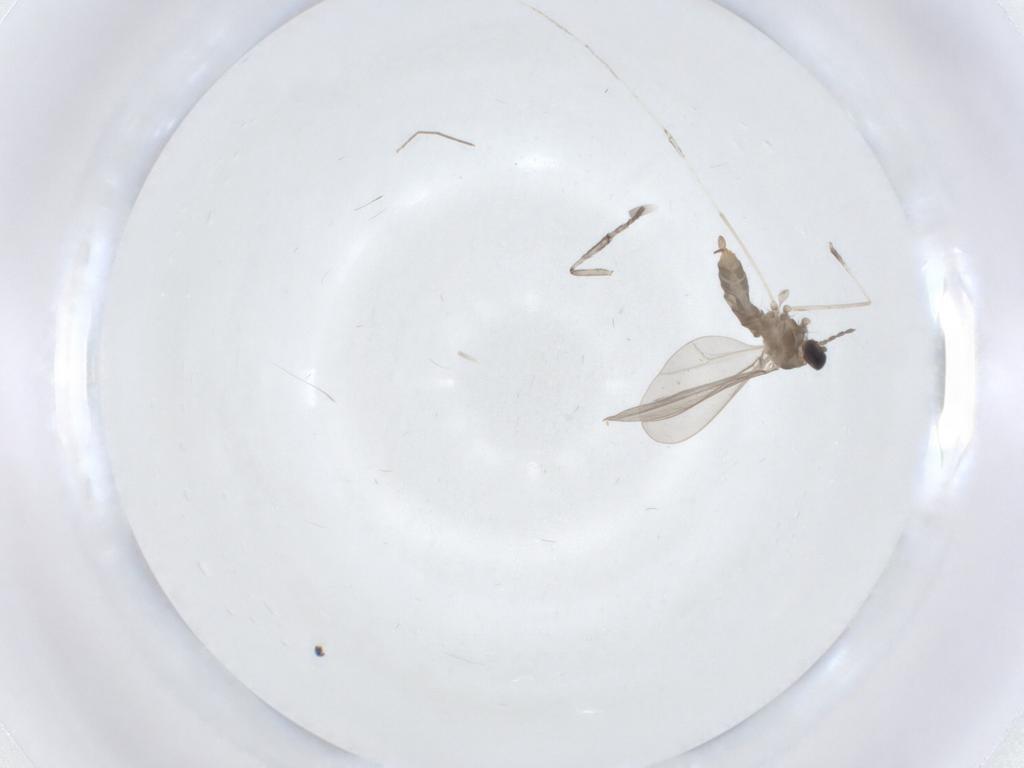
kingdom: Animalia
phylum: Arthropoda
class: Insecta
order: Diptera
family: Psychodidae
